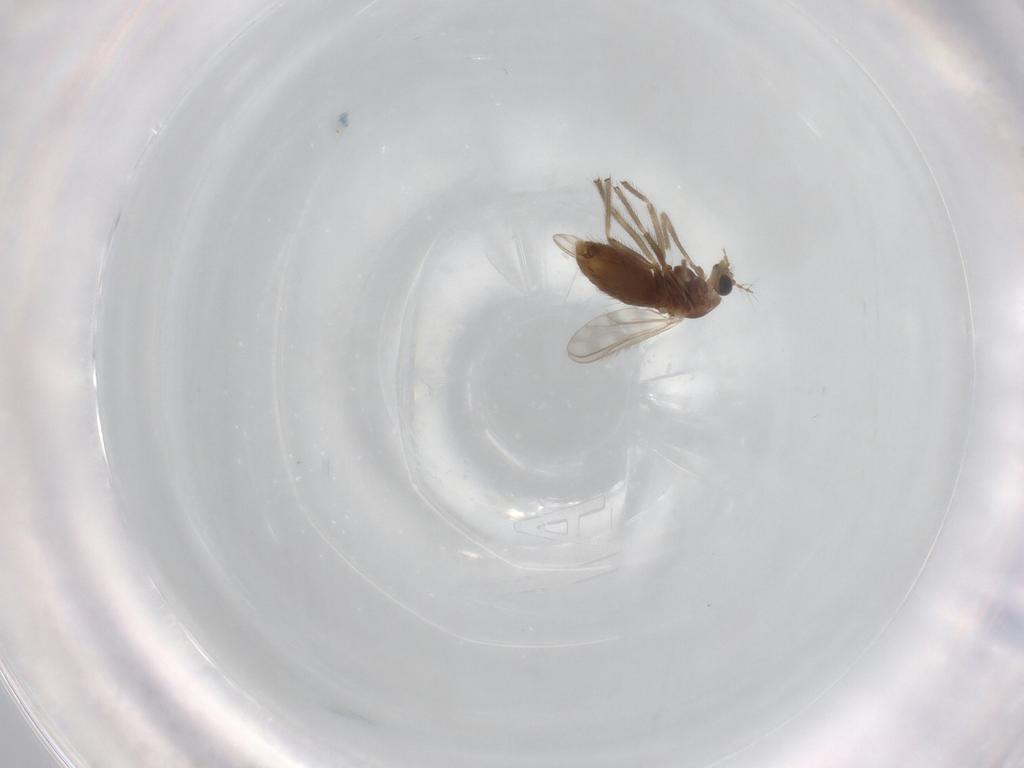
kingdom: Animalia
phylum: Arthropoda
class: Insecta
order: Diptera
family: Chironomidae
